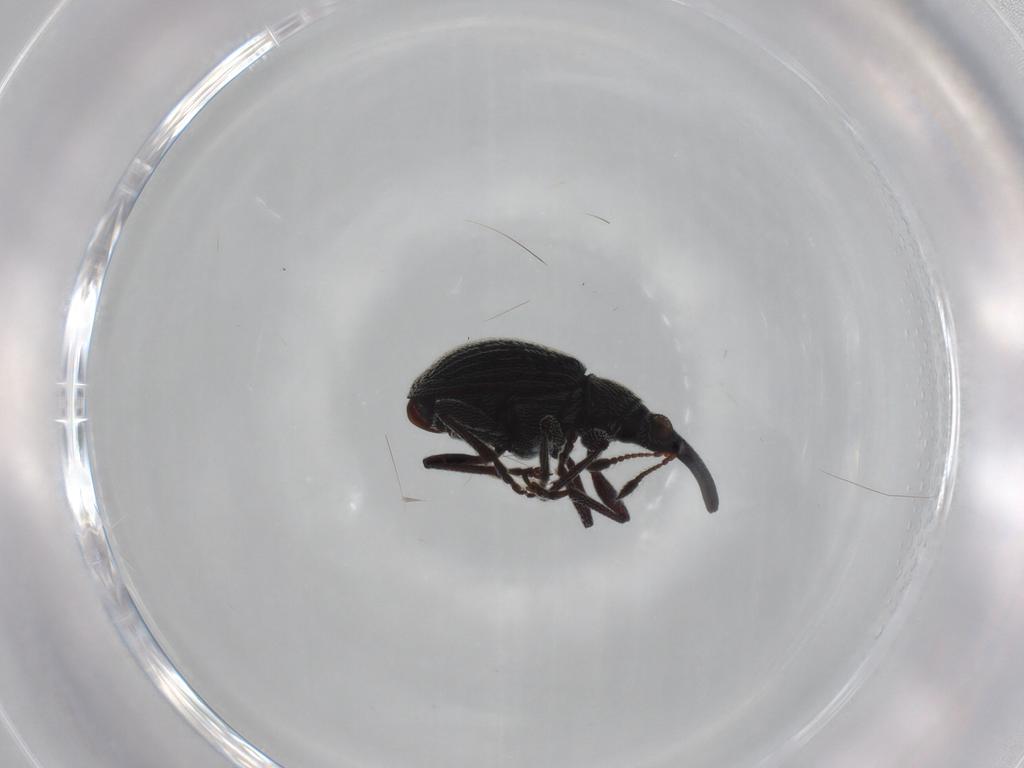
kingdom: Animalia
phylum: Arthropoda
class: Insecta
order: Coleoptera
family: Brentidae
